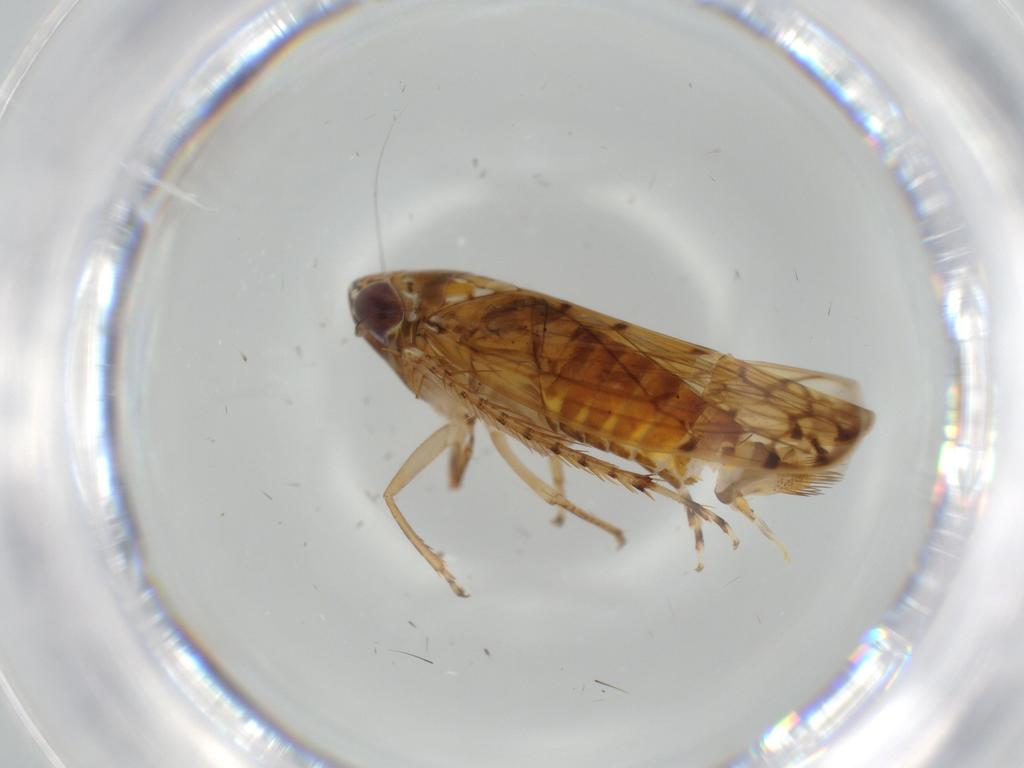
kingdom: Animalia
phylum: Arthropoda
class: Insecta
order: Hemiptera
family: Cicadellidae
